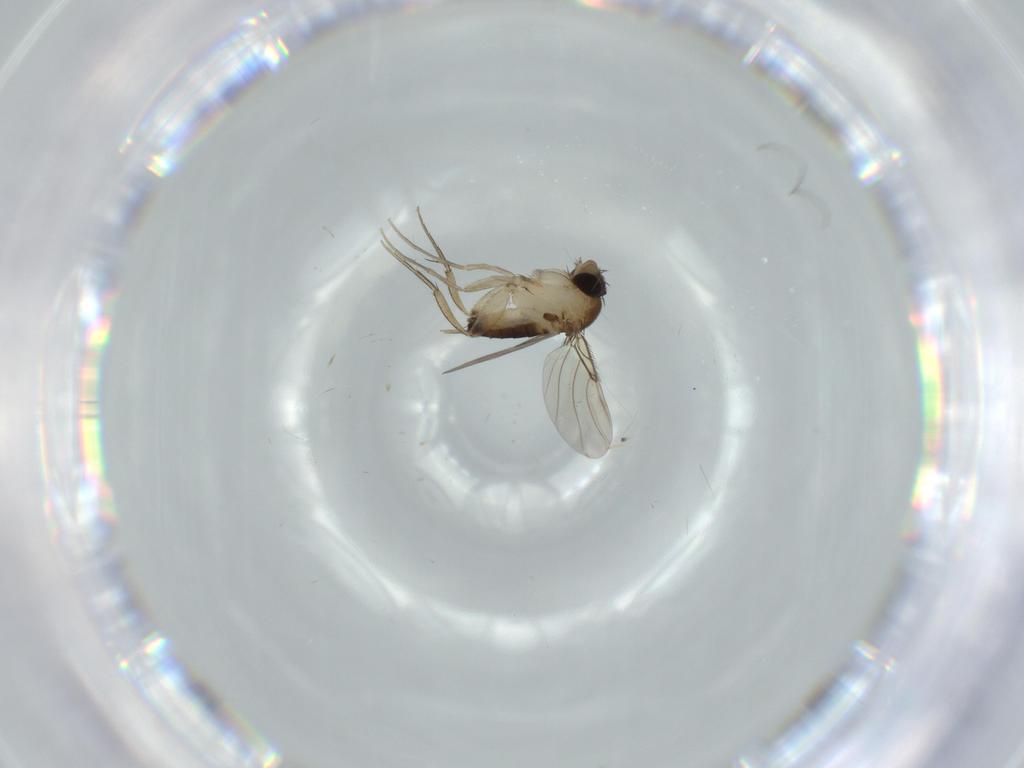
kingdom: Animalia
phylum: Arthropoda
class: Insecta
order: Diptera
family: Phoridae
